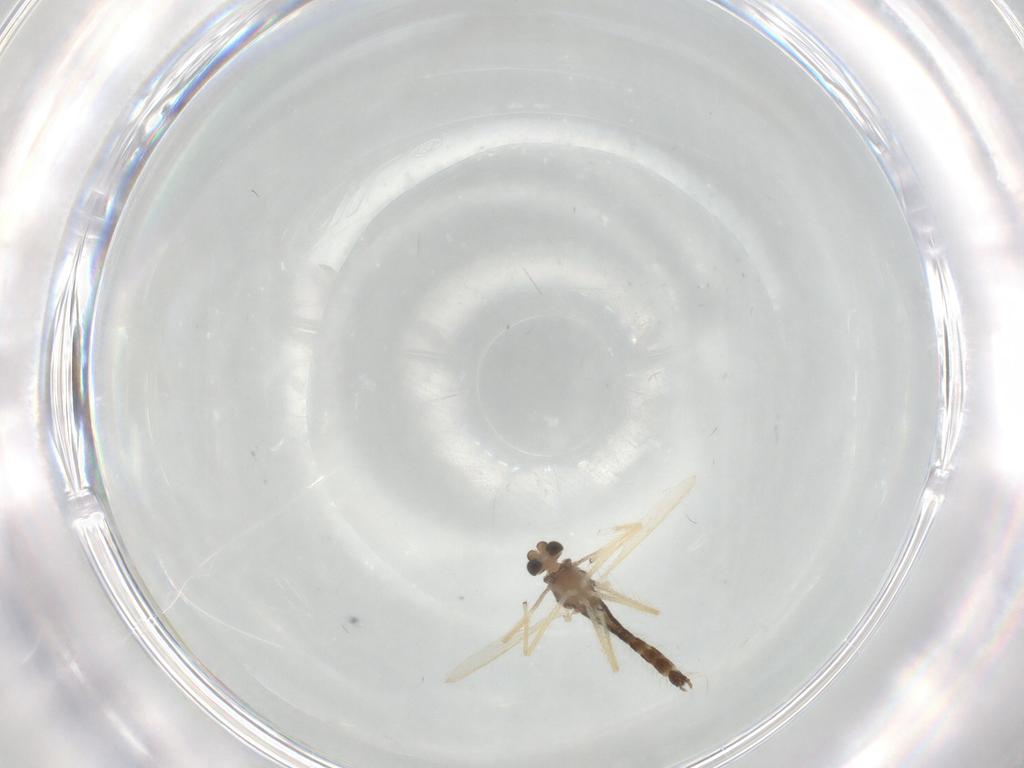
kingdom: Animalia
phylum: Arthropoda
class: Insecta
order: Diptera
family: Chironomidae
